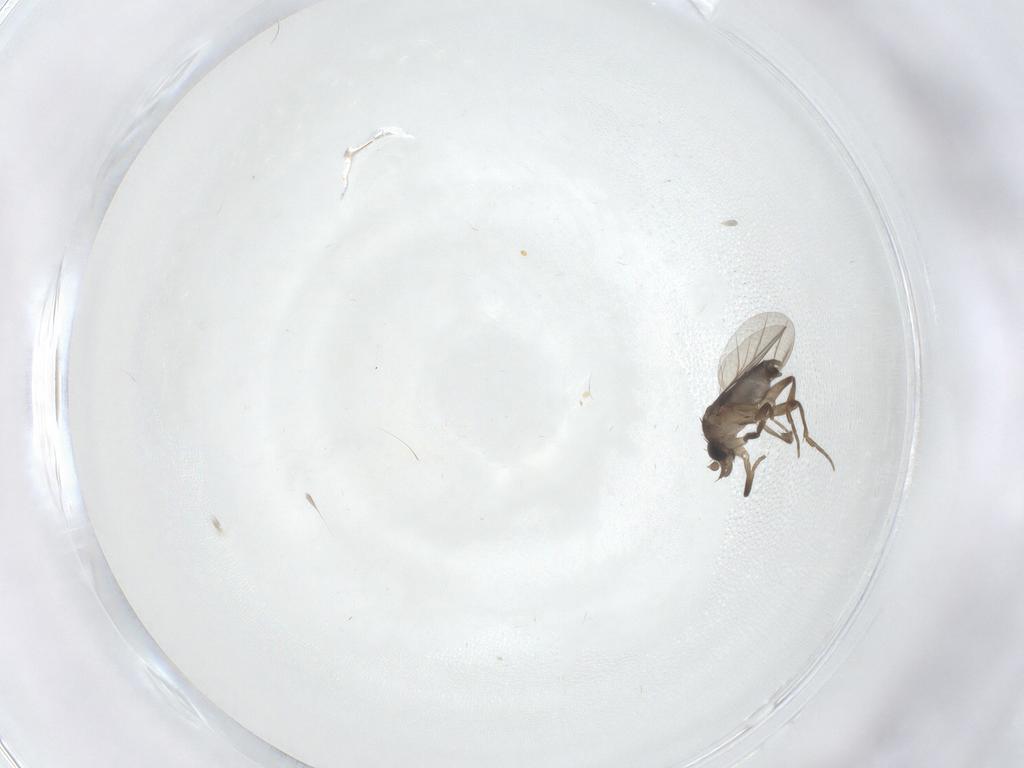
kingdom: Animalia
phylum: Arthropoda
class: Insecta
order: Diptera
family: Phoridae
